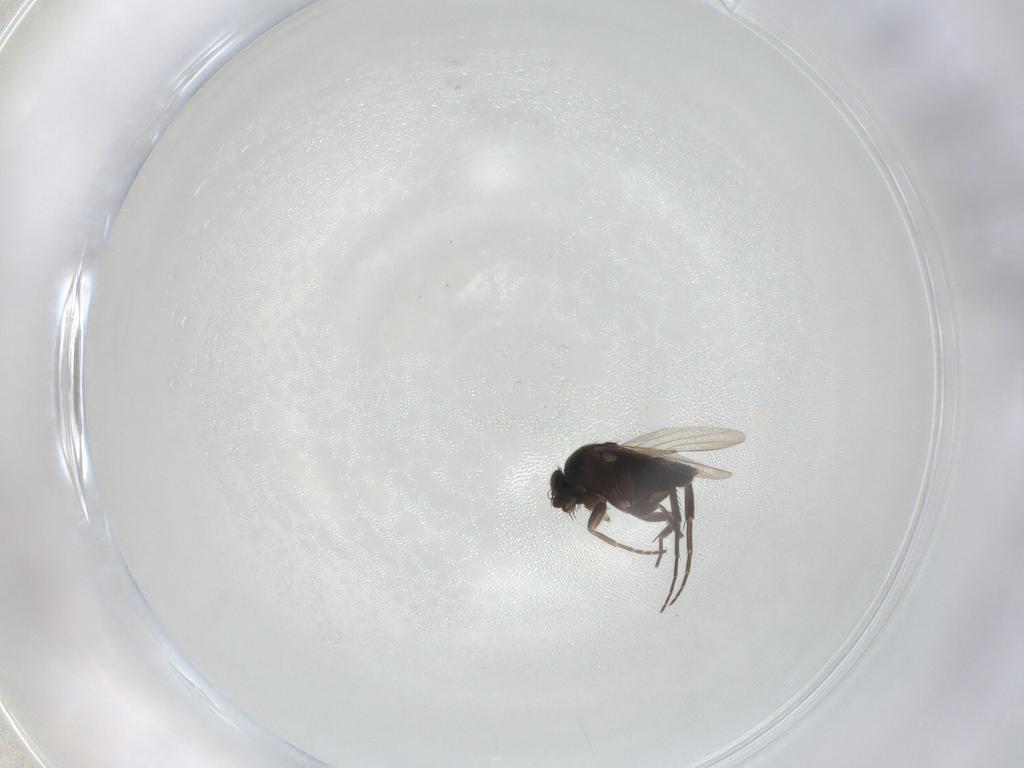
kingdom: Animalia
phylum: Arthropoda
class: Insecta
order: Diptera
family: Phoridae
